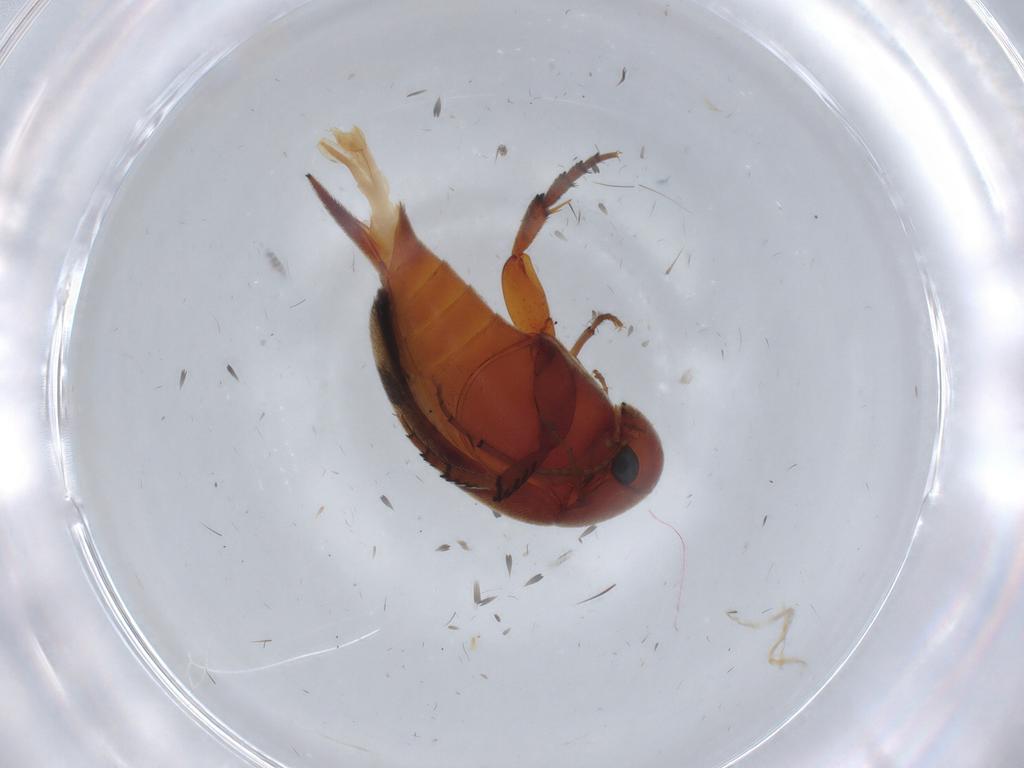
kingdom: Animalia
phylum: Arthropoda
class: Insecta
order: Coleoptera
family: Mordellidae
